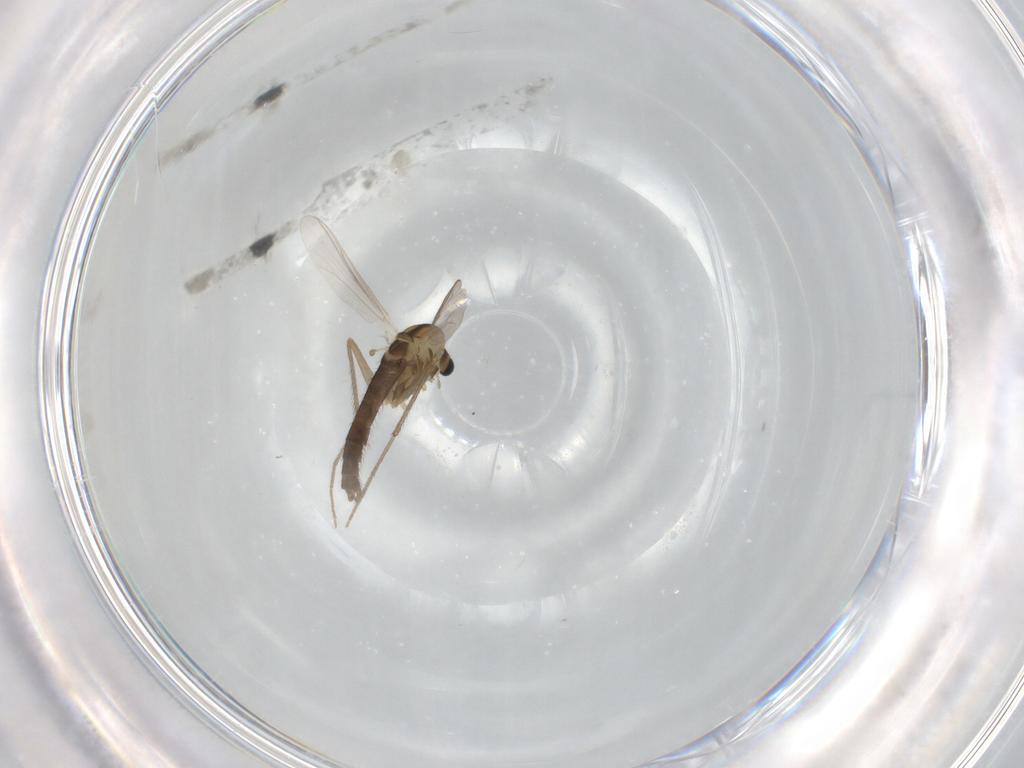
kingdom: Animalia
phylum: Arthropoda
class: Insecta
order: Diptera
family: Chironomidae
